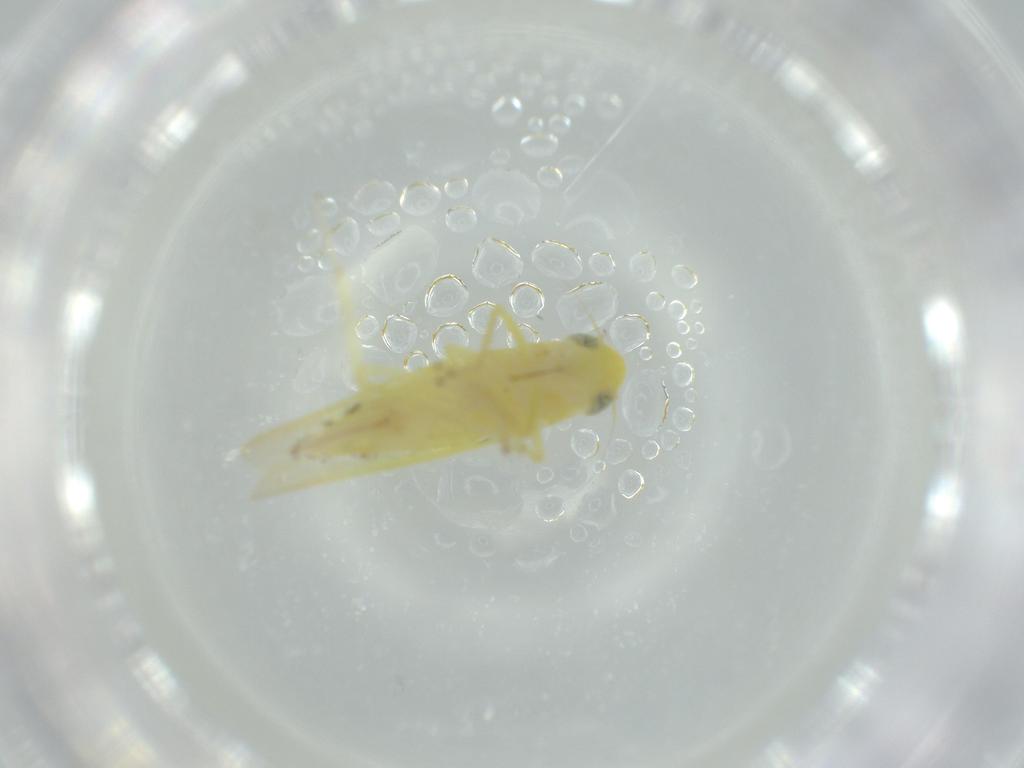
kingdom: Animalia
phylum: Arthropoda
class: Insecta
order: Hemiptera
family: Cicadellidae
